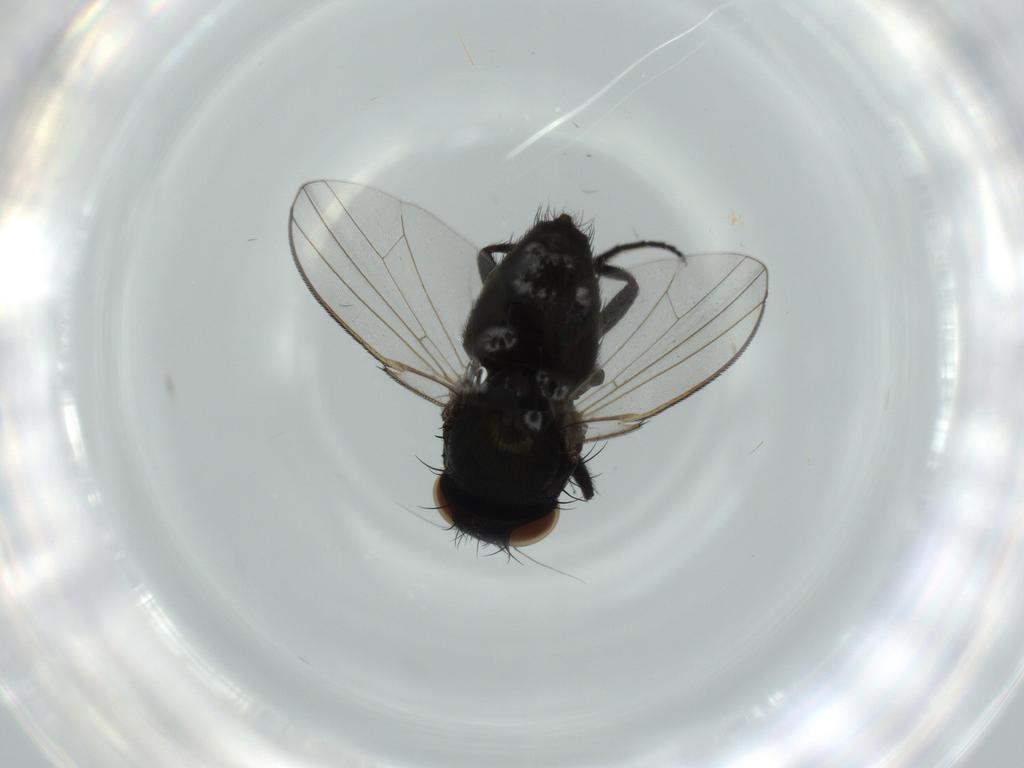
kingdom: Animalia
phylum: Arthropoda
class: Insecta
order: Diptera
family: Milichiidae
